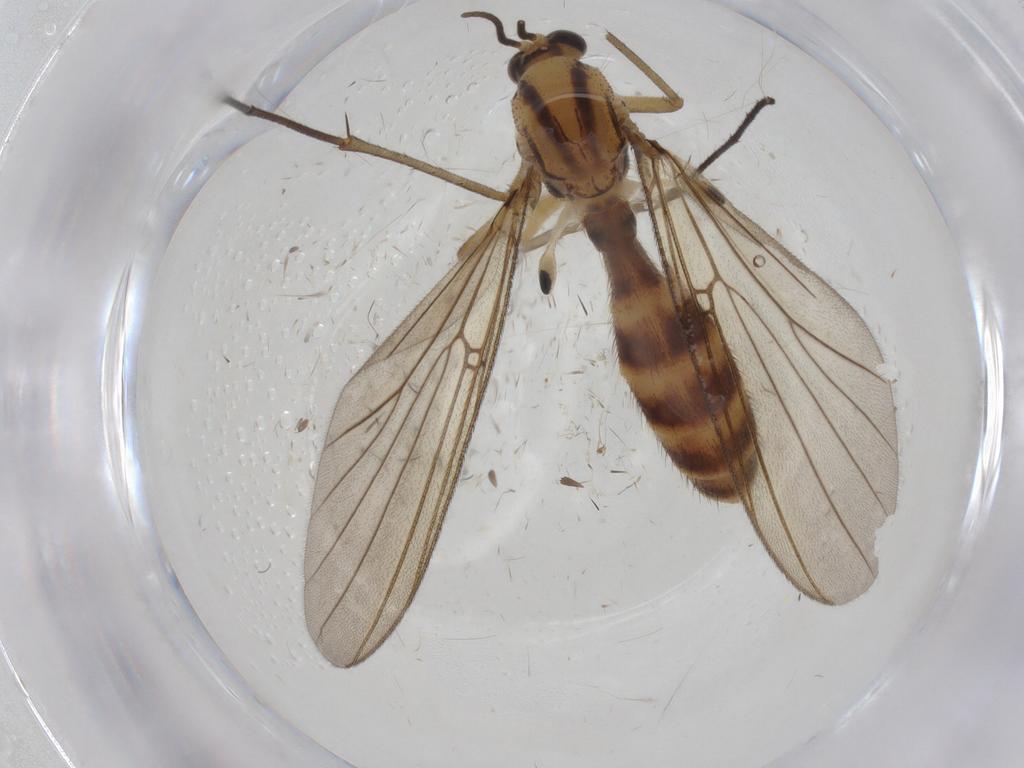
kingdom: Animalia
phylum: Arthropoda
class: Insecta
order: Diptera
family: Mycetophilidae
